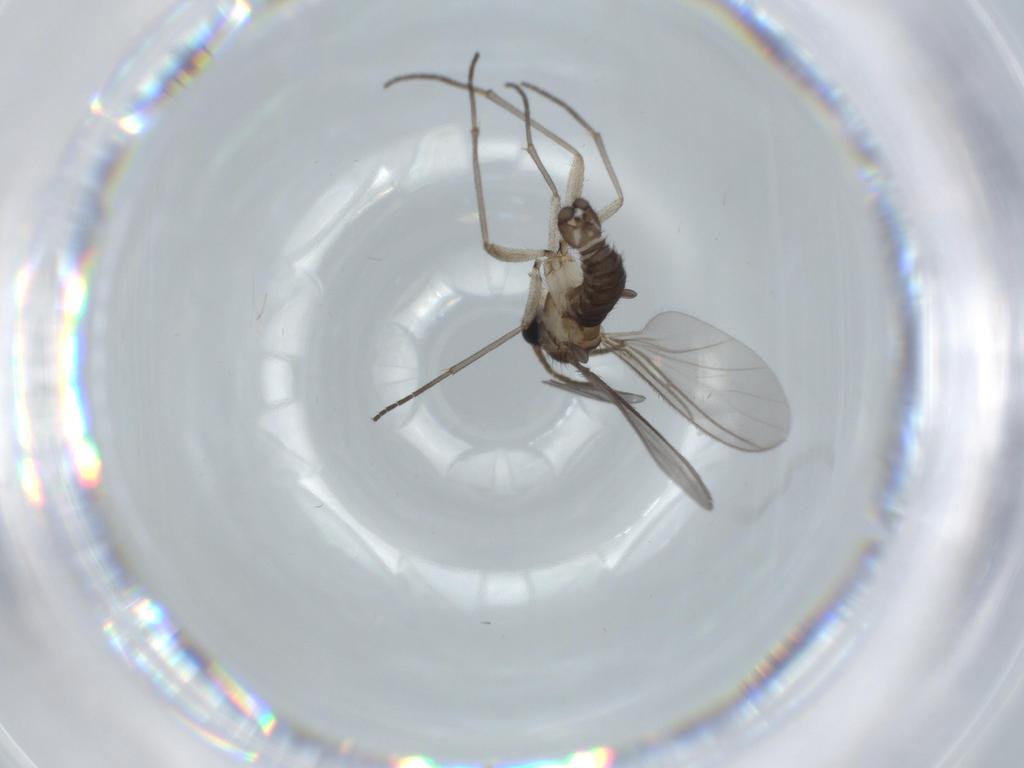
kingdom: Animalia
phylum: Arthropoda
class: Insecta
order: Diptera
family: Sciaridae
